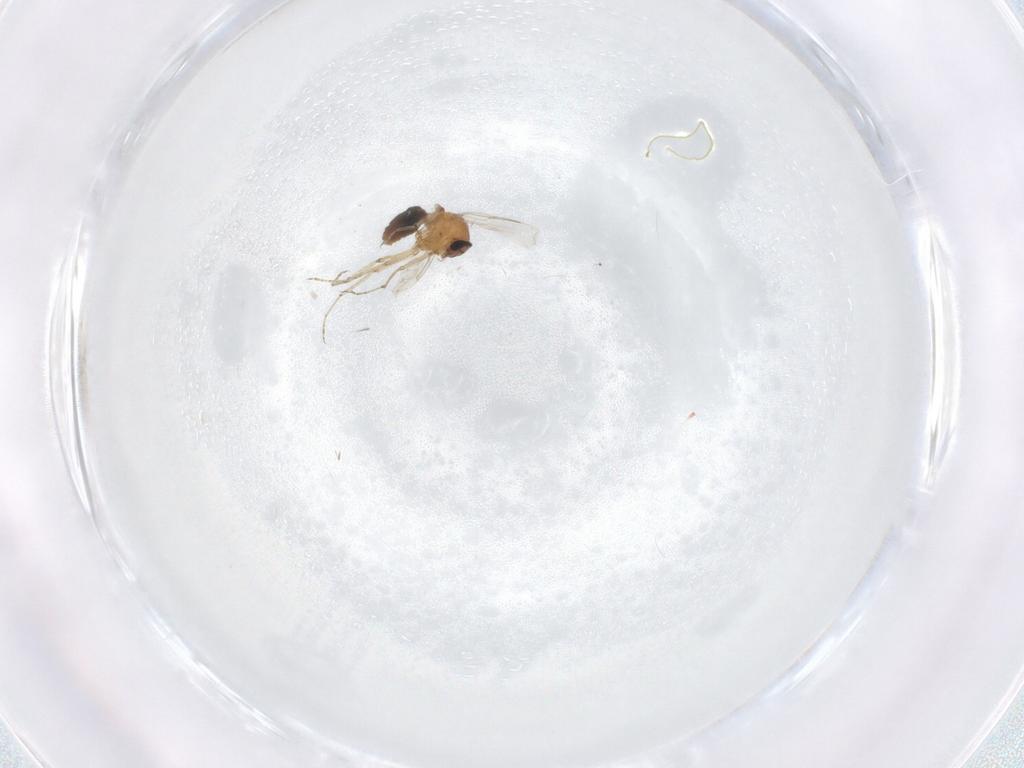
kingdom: Animalia
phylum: Arthropoda
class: Insecta
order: Diptera
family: Ceratopogonidae
